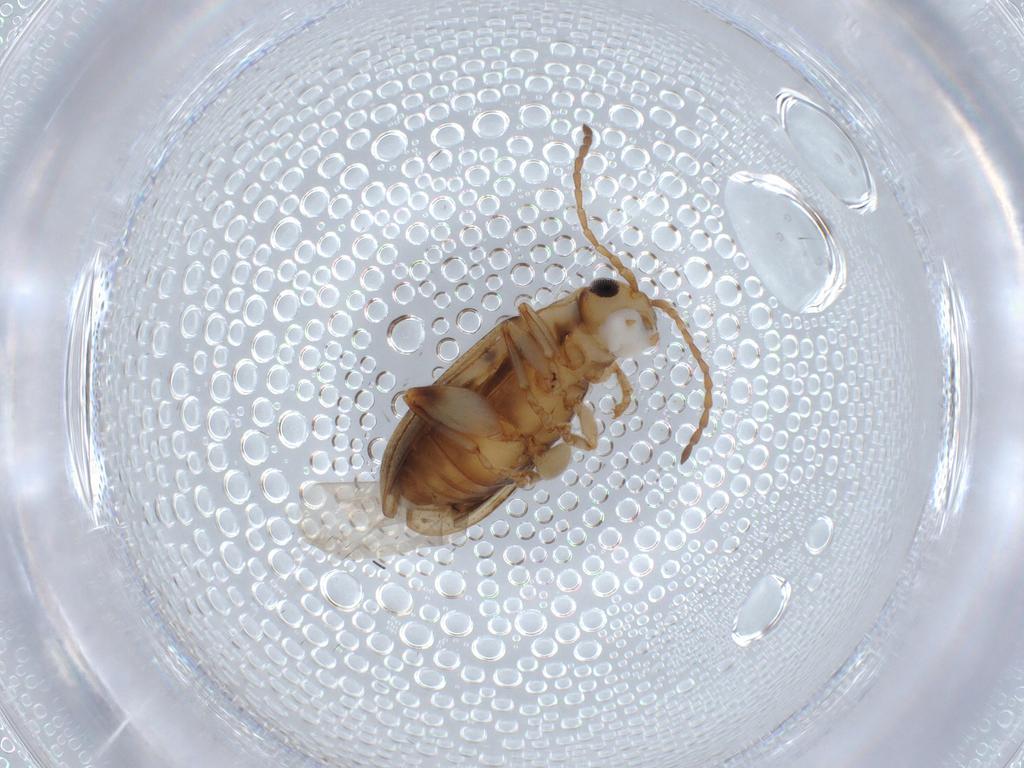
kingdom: Animalia
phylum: Arthropoda
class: Insecta
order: Coleoptera
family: Chrysomelidae
